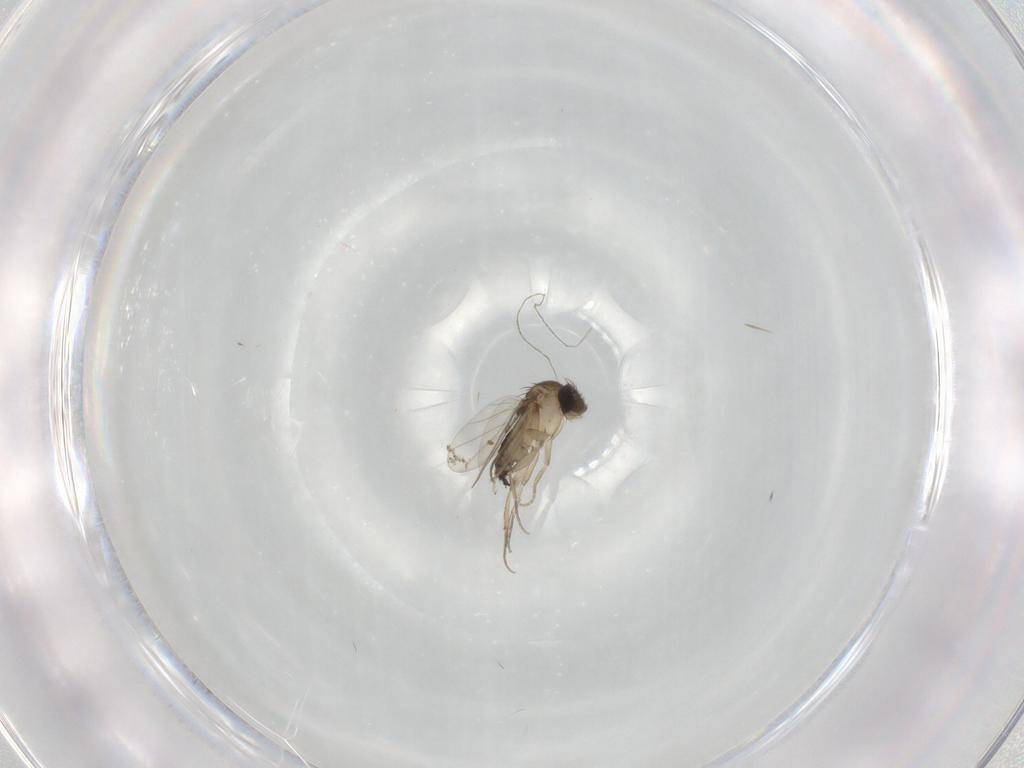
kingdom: Animalia
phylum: Arthropoda
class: Insecta
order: Diptera
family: Phoridae
